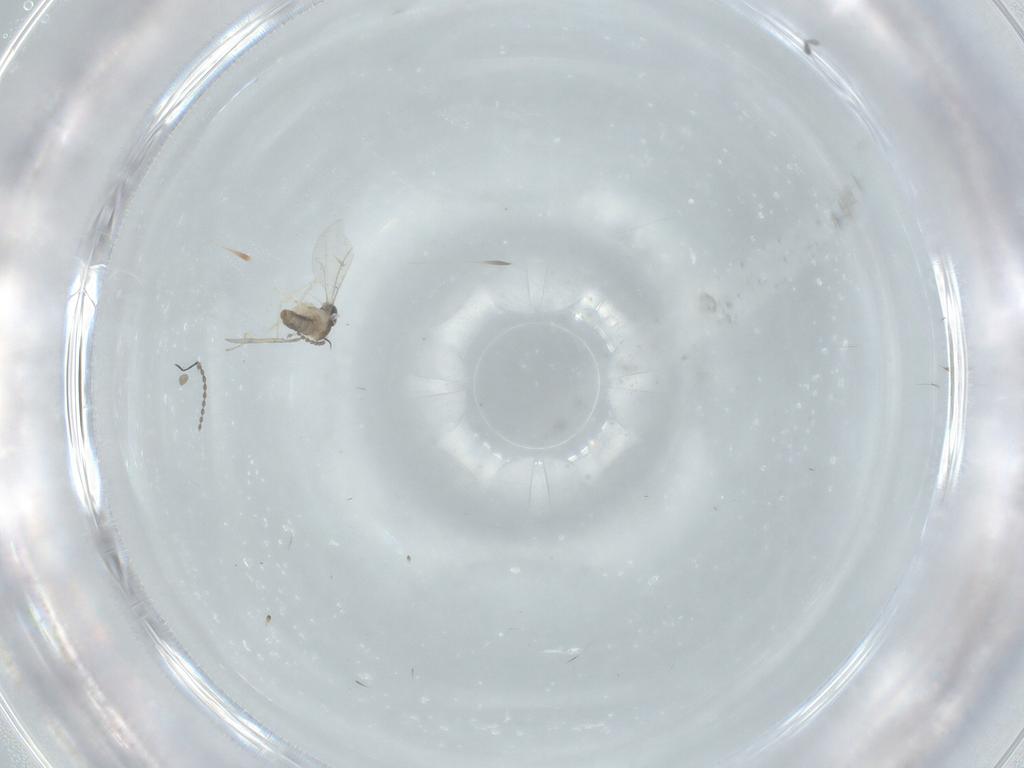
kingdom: Animalia
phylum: Arthropoda
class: Insecta
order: Diptera
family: Cecidomyiidae
